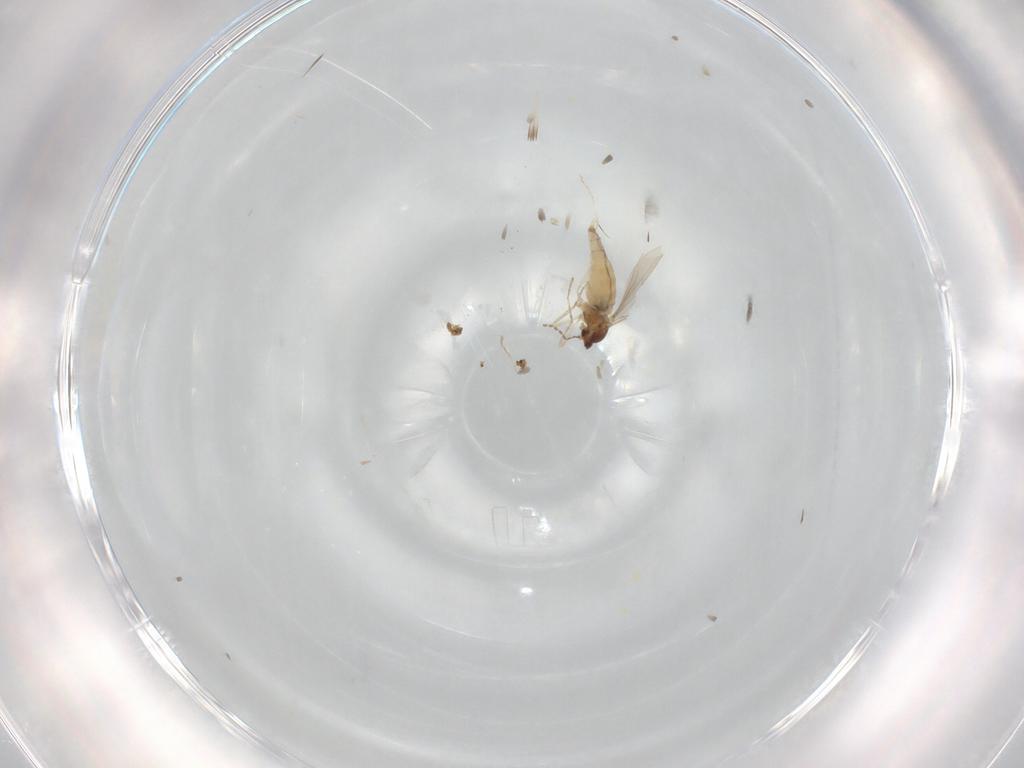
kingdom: Animalia
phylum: Arthropoda
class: Insecta
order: Diptera
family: Cecidomyiidae
